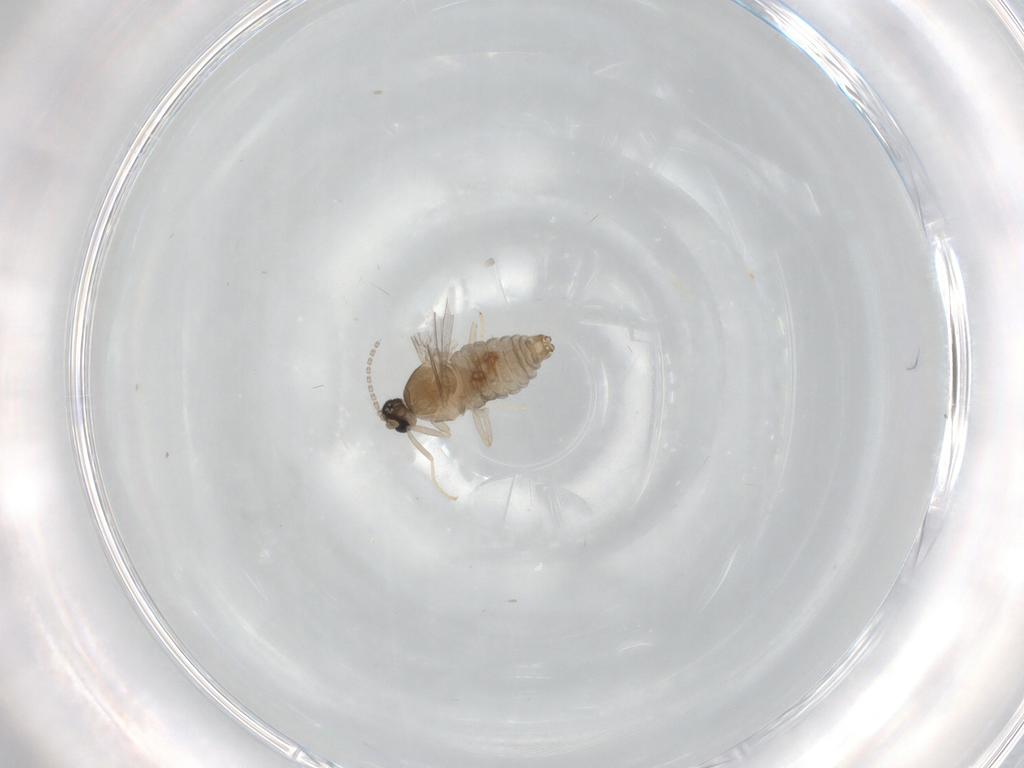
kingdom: Animalia
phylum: Arthropoda
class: Insecta
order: Diptera
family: Cecidomyiidae
